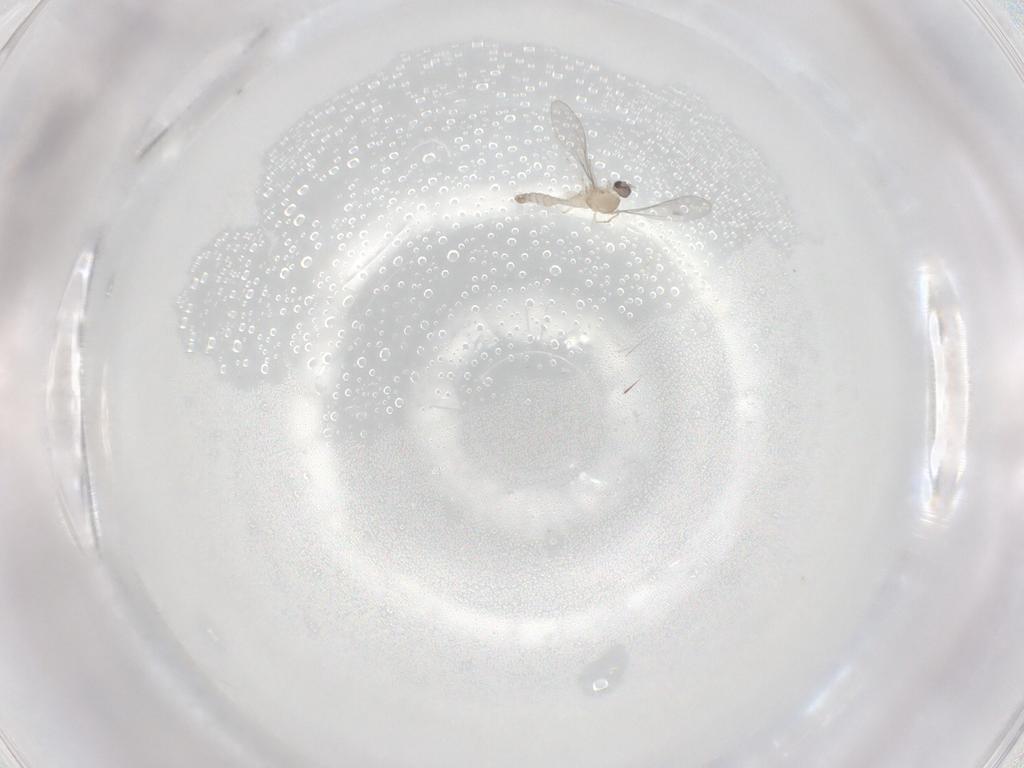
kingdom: Animalia
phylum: Arthropoda
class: Insecta
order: Diptera
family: Cecidomyiidae
